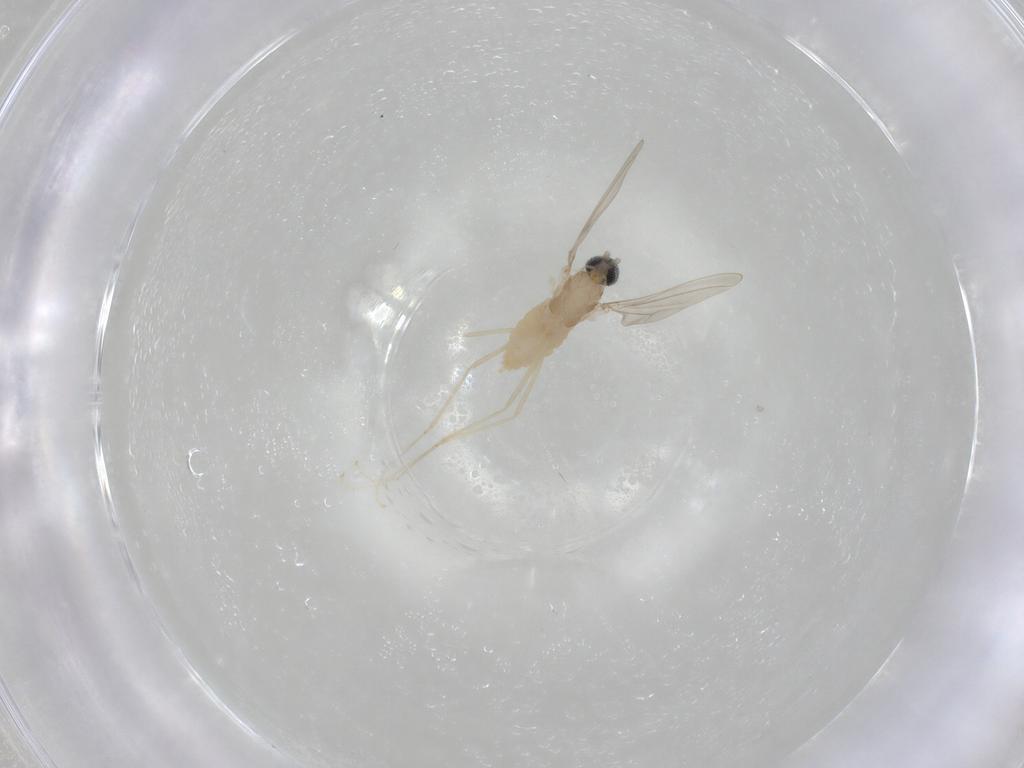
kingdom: Animalia
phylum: Arthropoda
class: Insecta
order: Diptera
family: Cecidomyiidae
